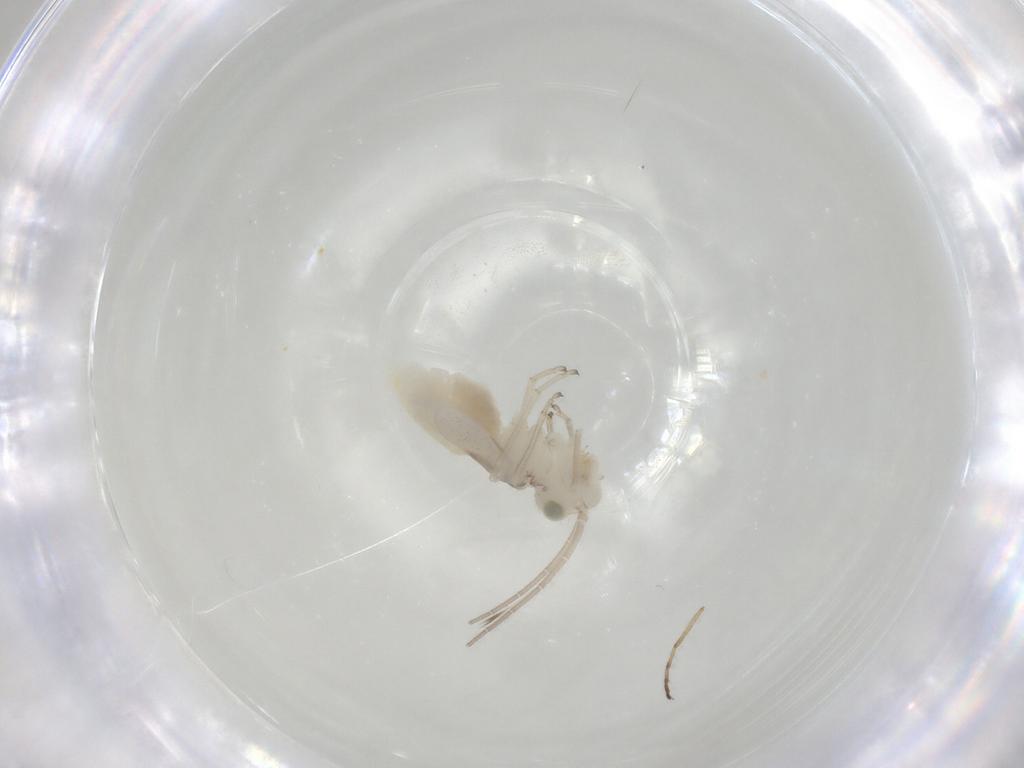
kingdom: Animalia
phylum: Arthropoda
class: Insecta
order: Psocodea
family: Caeciliusidae
